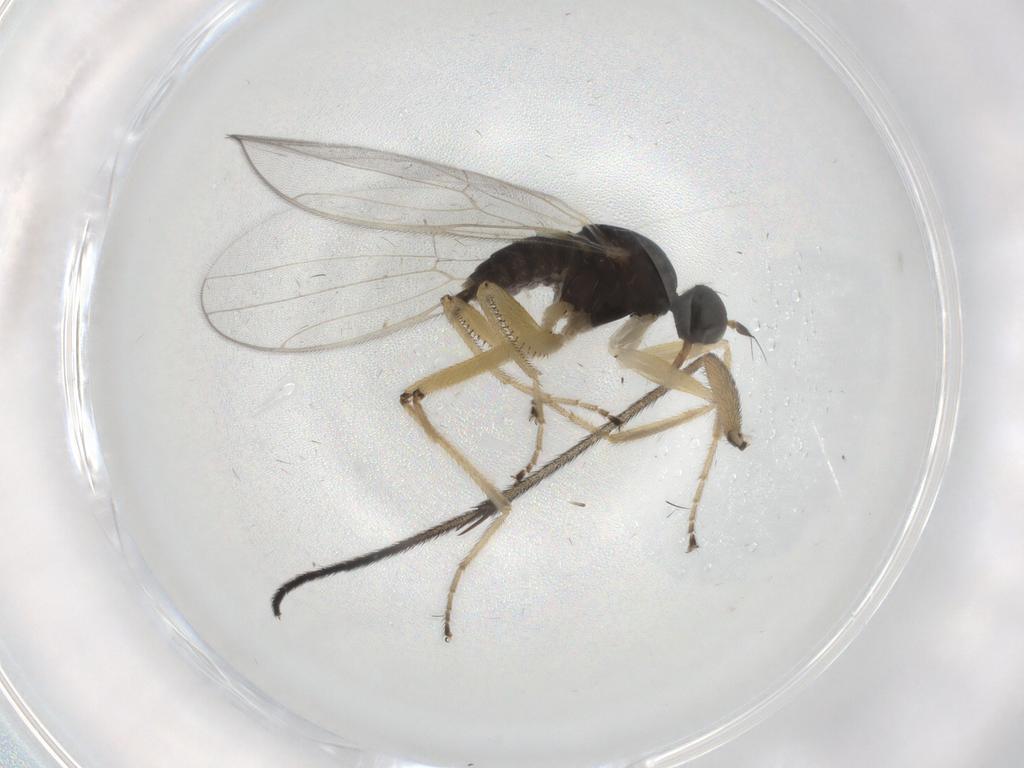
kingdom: Animalia
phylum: Arthropoda
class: Insecta
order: Diptera
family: Hybotidae
